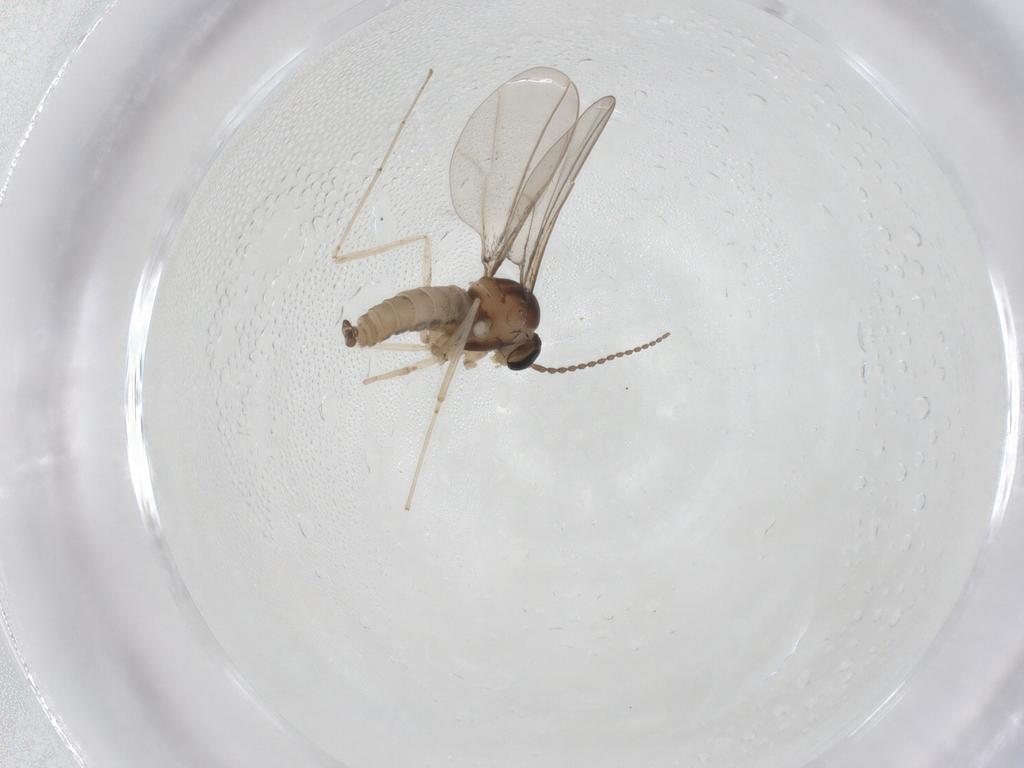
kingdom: Animalia
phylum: Arthropoda
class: Insecta
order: Diptera
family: Cecidomyiidae
